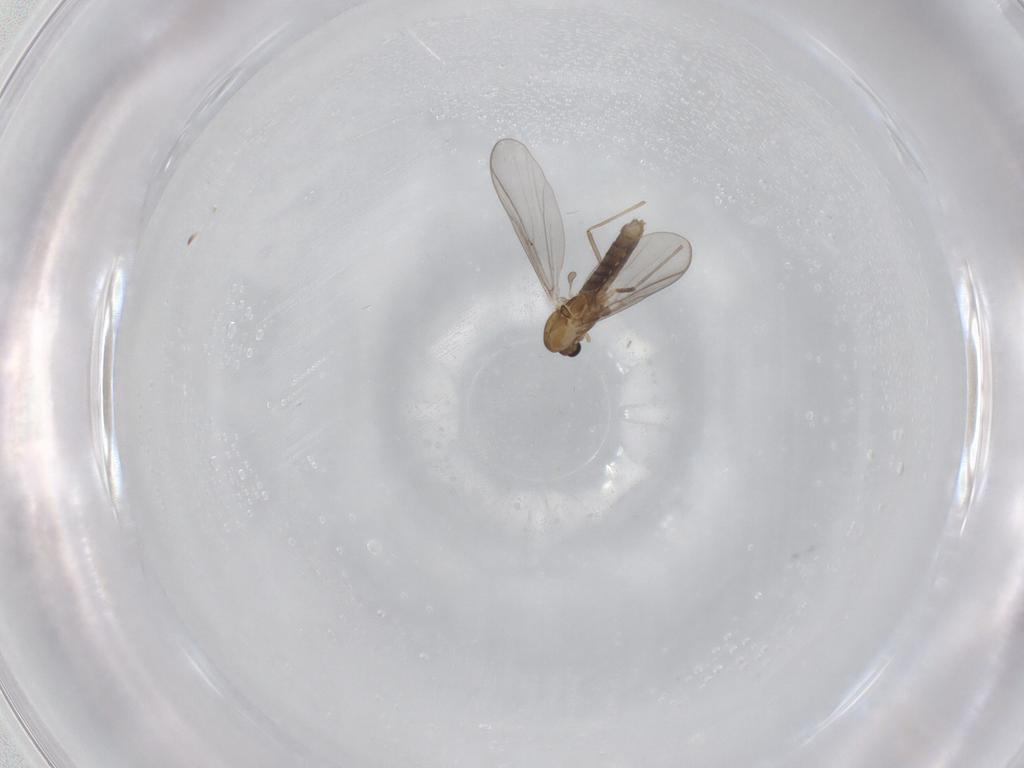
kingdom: Animalia
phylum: Arthropoda
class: Insecta
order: Diptera
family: Chironomidae
